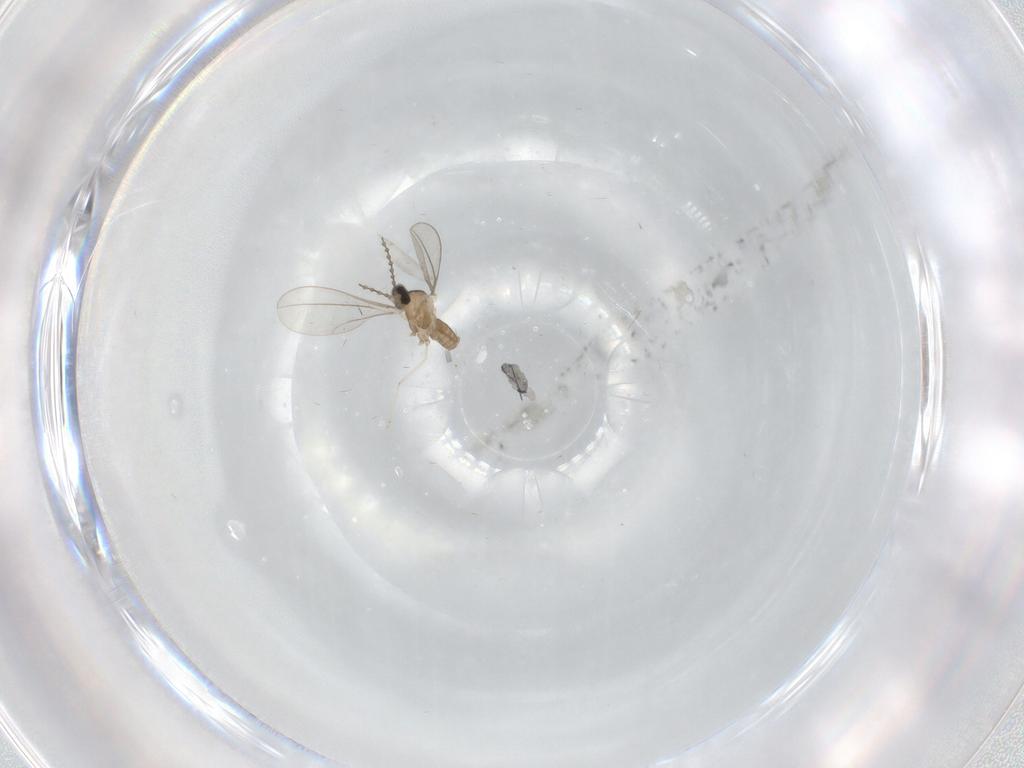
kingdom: Animalia
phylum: Arthropoda
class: Insecta
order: Diptera
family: Cecidomyiidae
